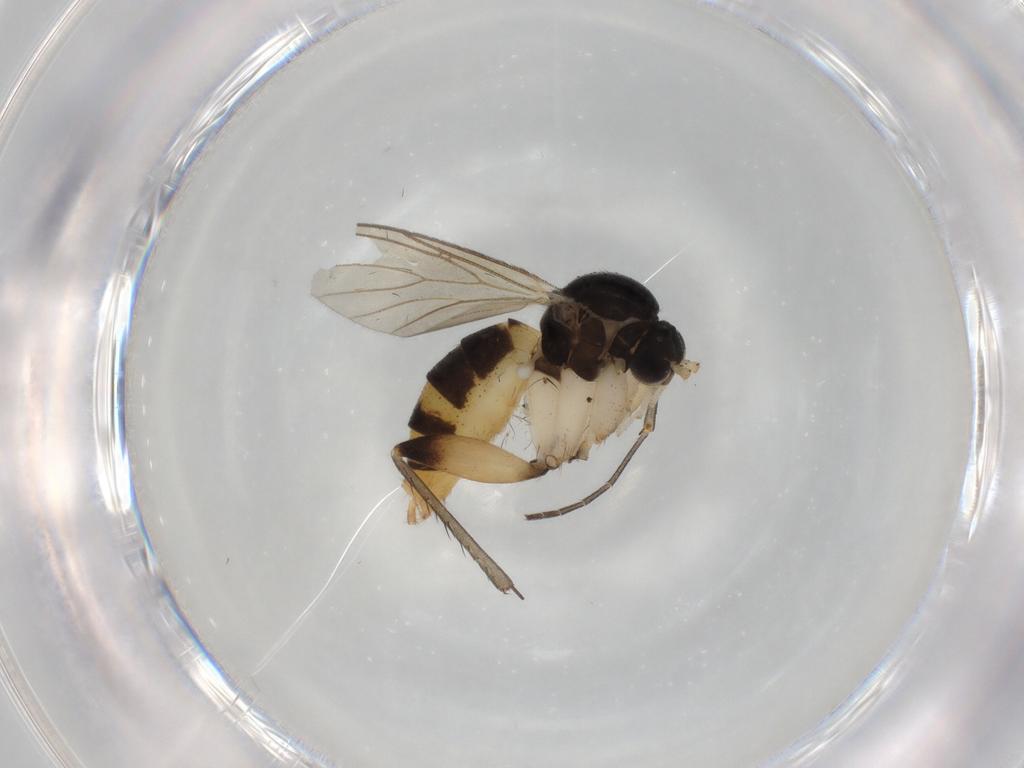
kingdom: Animalia
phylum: Arthropoda
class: Insecta
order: Diptera
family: Mycetophilidae
